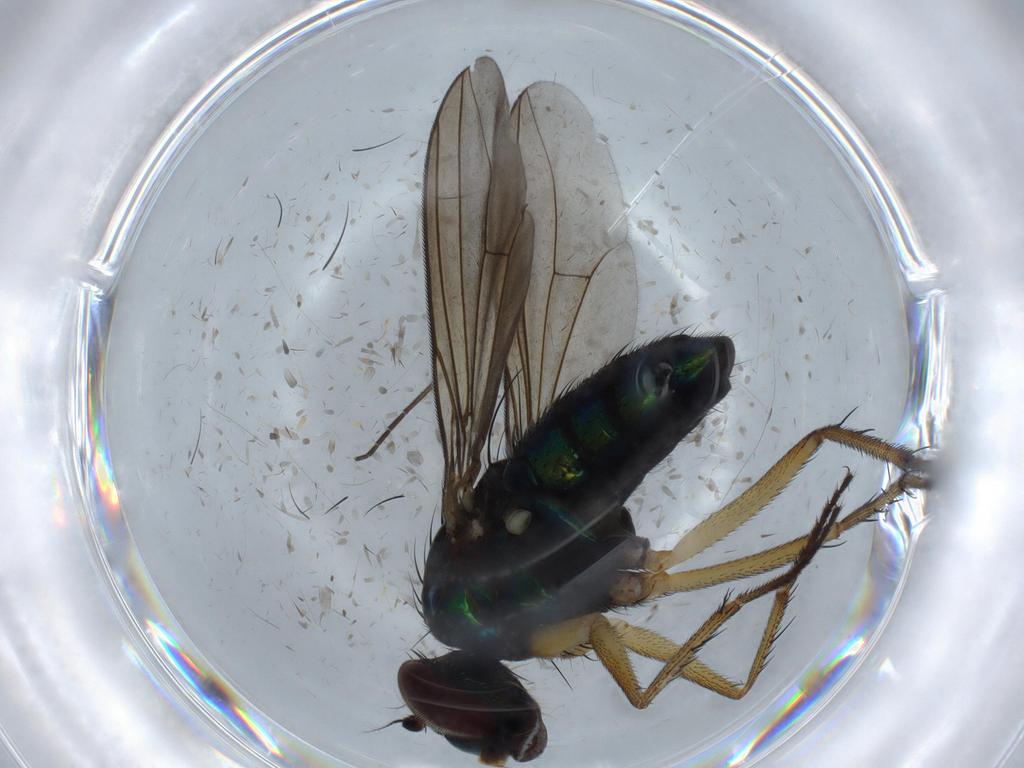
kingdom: Animalia
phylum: Arthropoda
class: Insecta
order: Diptera
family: Dolichopodidae
